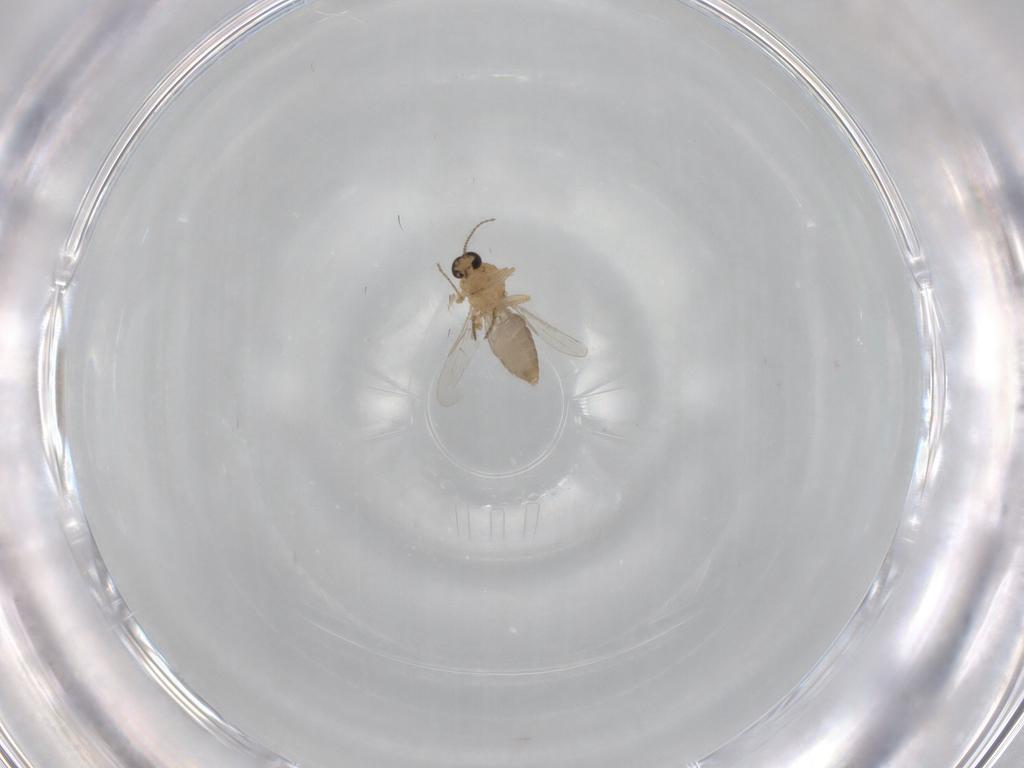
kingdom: Animalia
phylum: Arthropoda
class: Insecta
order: Diptera
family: Ceratopogonidae
